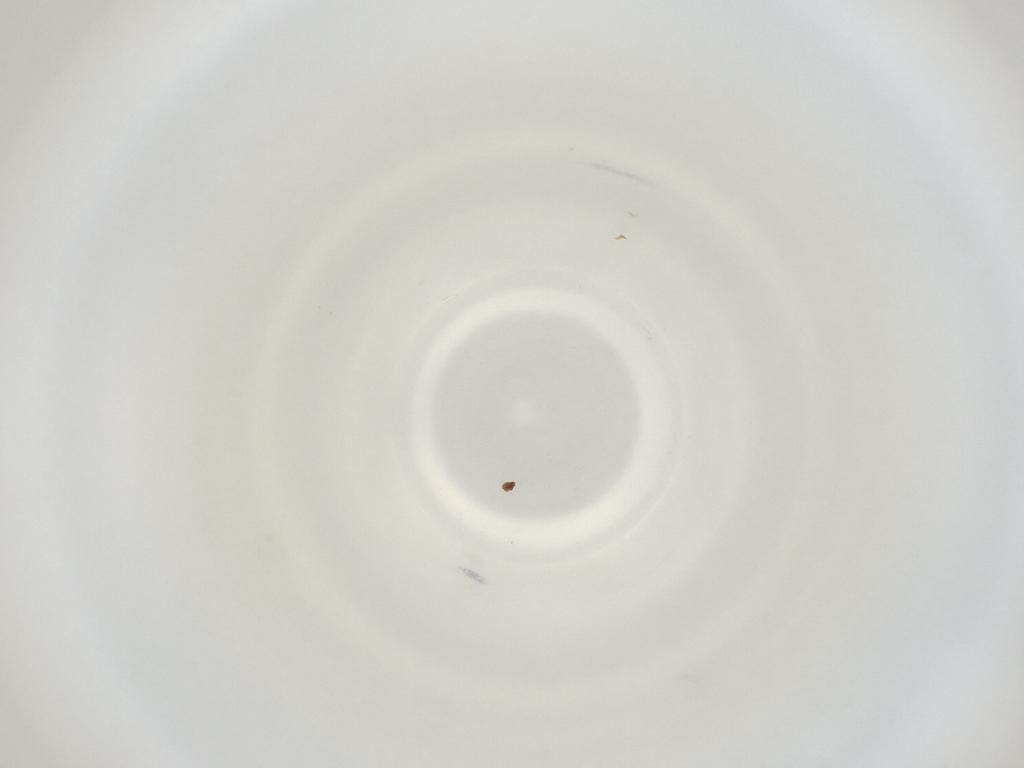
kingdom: Animalia
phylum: Arthropoda
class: Insecta
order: Diptera
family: Cecidomyiidae
